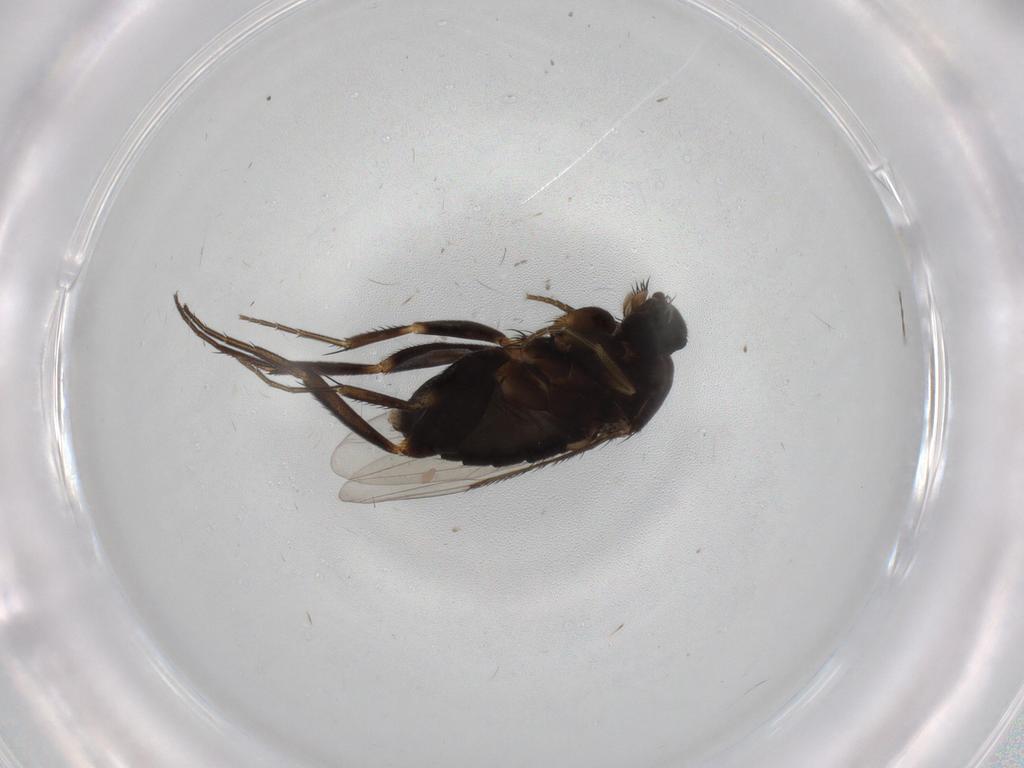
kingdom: Animalia
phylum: Arthropoda
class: Insecta
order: Diptera
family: Phoridae
